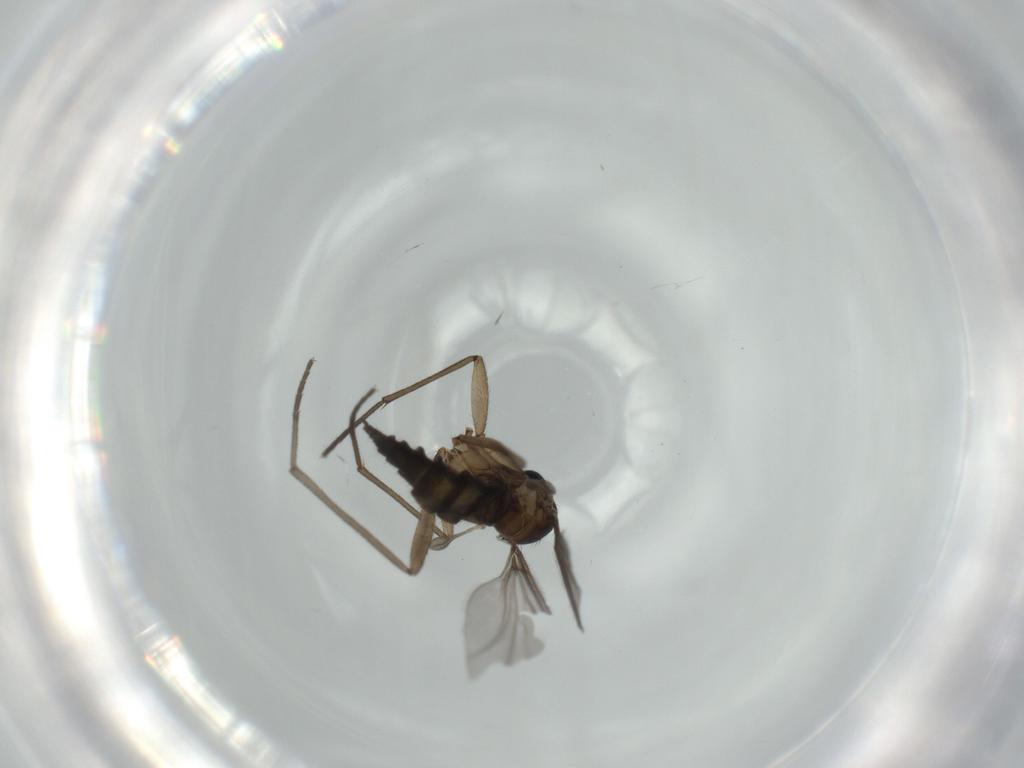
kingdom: Animalia
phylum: Arthropoda
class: Insecta
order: Diptera
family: Sciaridae
